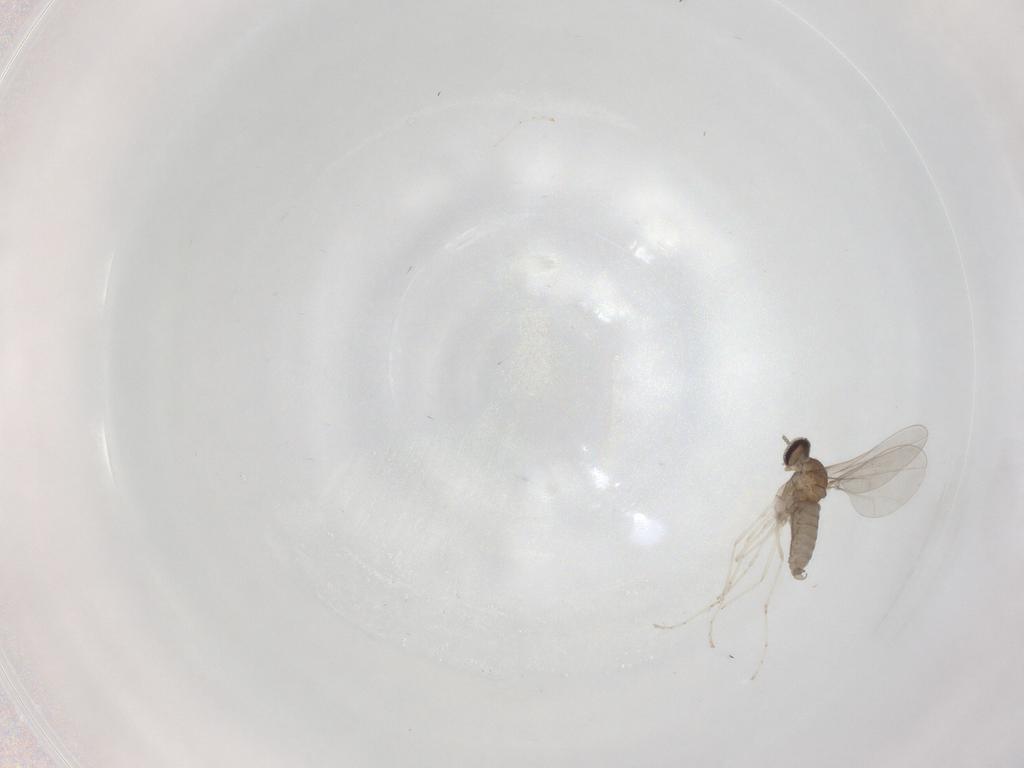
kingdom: Animalia
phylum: Arthropoda
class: Insecta
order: Diptera
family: Cecidomyiidae
